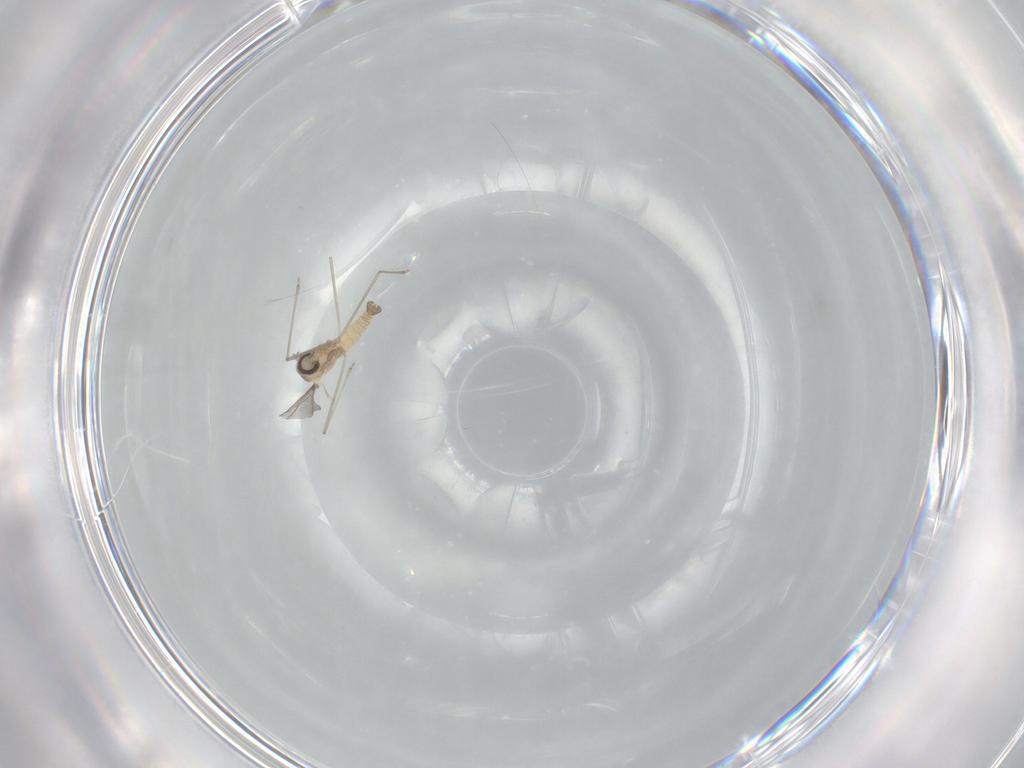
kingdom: Animalia
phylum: Arthropoda
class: Insecta
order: Diptera
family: Cecidomyiidae
